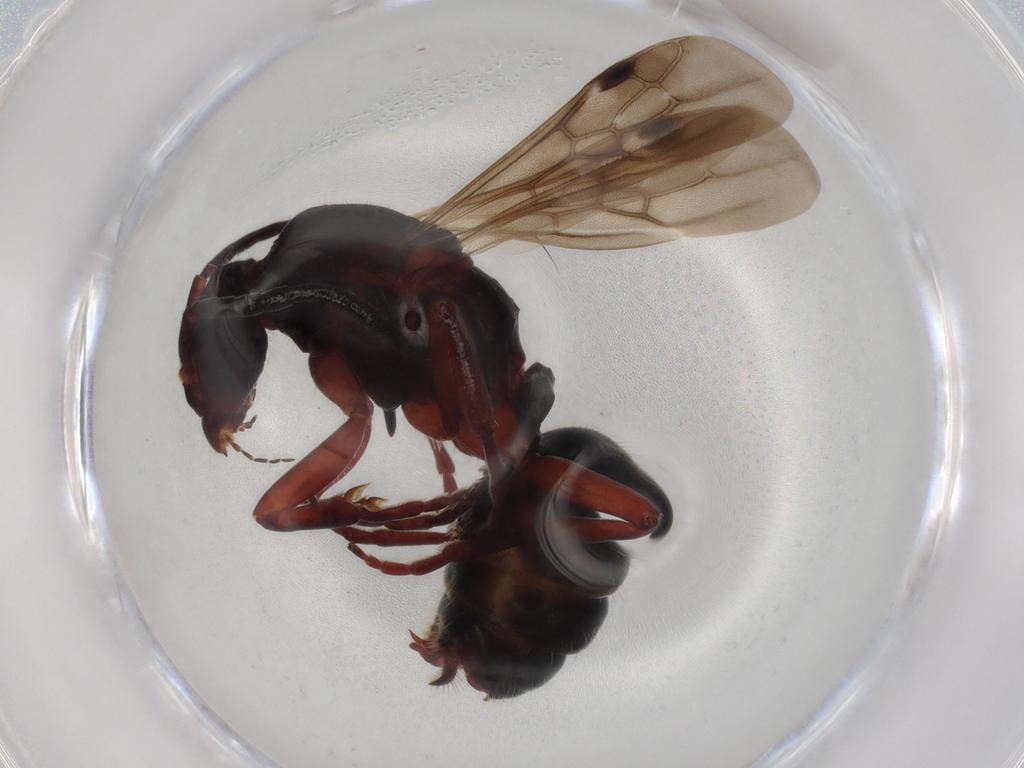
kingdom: Animalia
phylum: Arthropoda
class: Insecta
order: Hymenoptera
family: Formicidae
